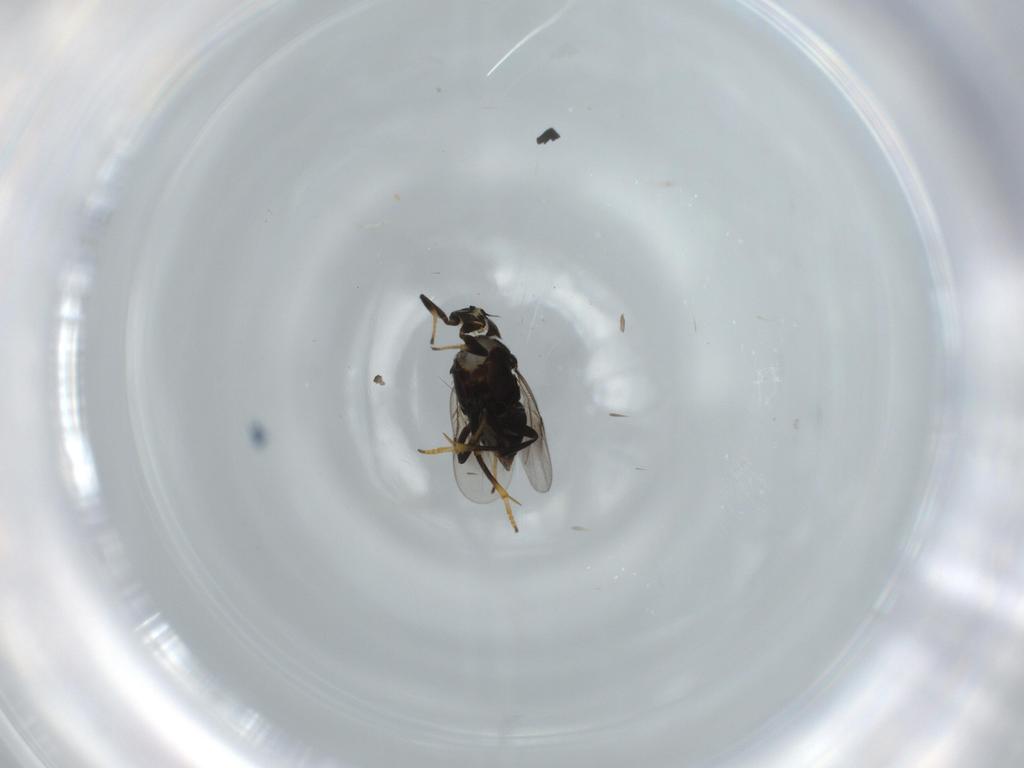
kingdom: Animalia
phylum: Arthropoda
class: Insecta
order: Hymenoptera
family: Encyrtidae
